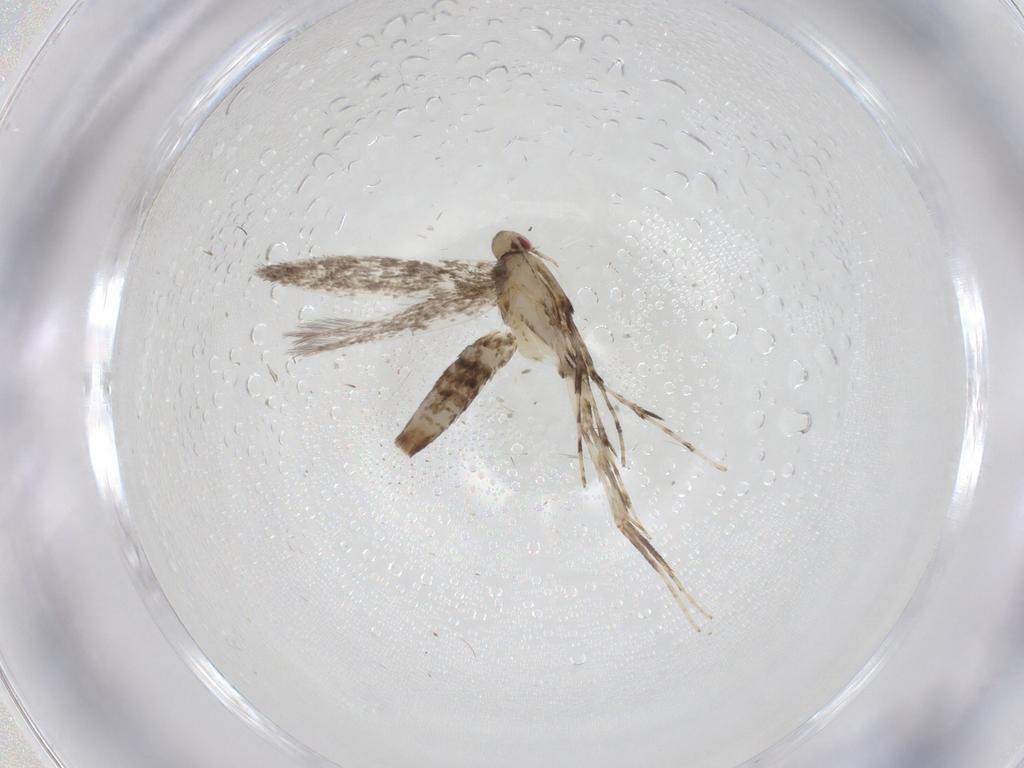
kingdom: Animalia
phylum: Arthropoda
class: Insecta
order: Lepidoptera
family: Gracillariidae
